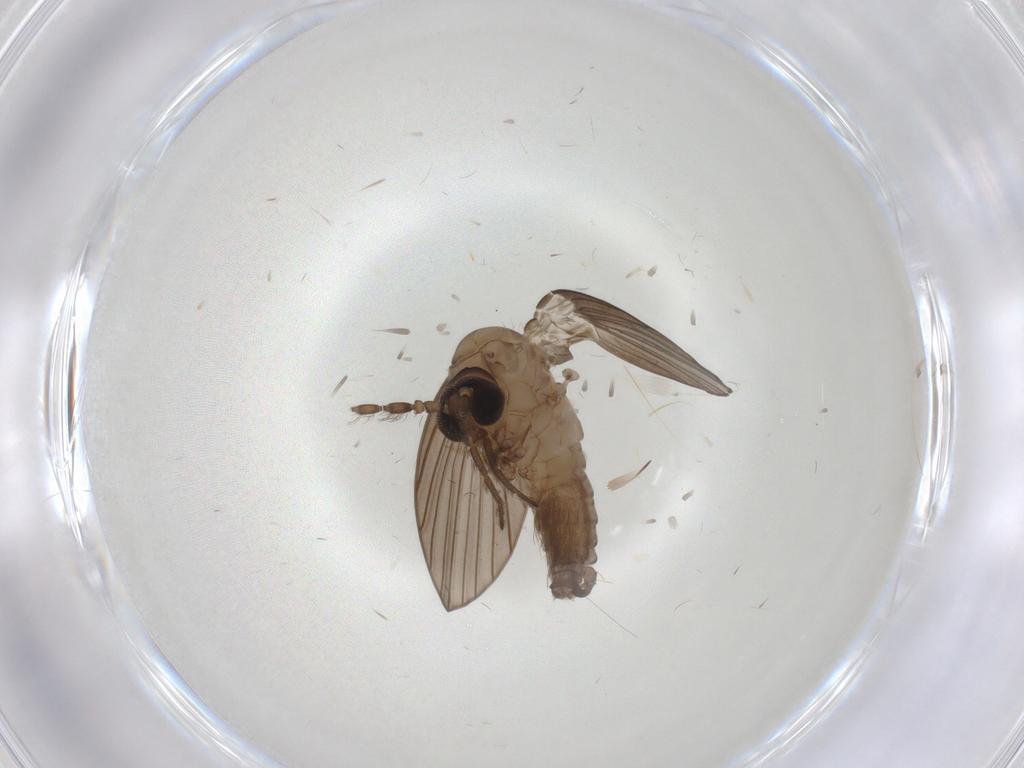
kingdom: Animalia
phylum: Arthropoda
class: Insecta
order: Diptera
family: Psychodidae
